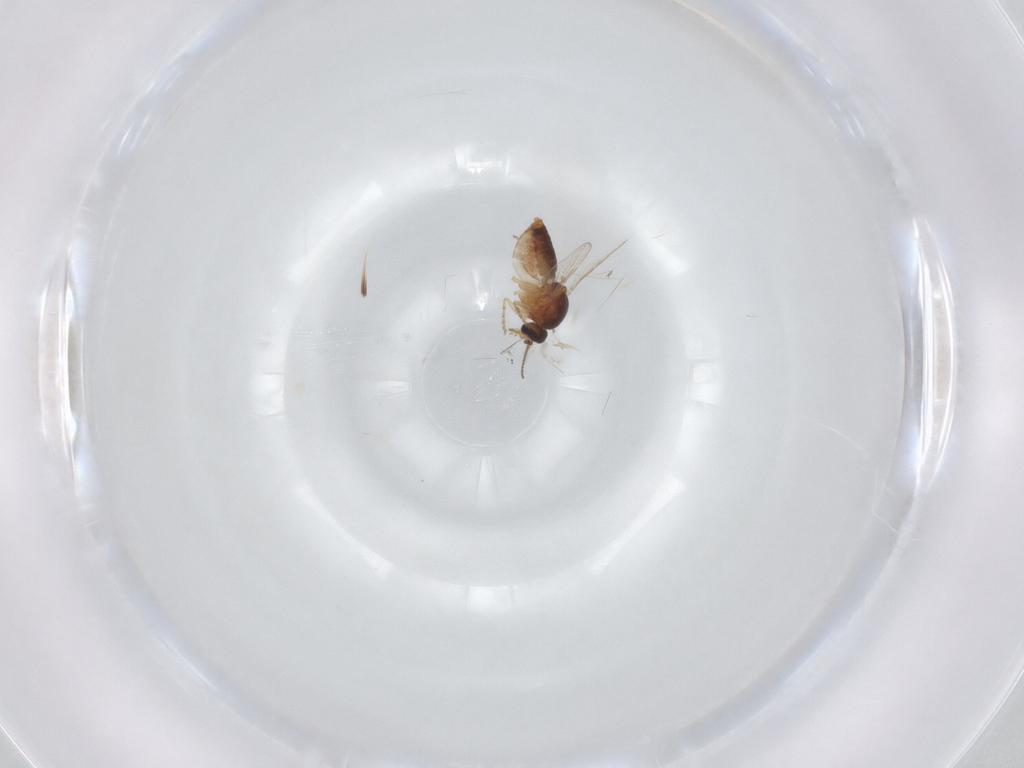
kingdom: Animalia
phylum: Arthropoda
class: Insecta
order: Diptera
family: Ceratopogonidae
